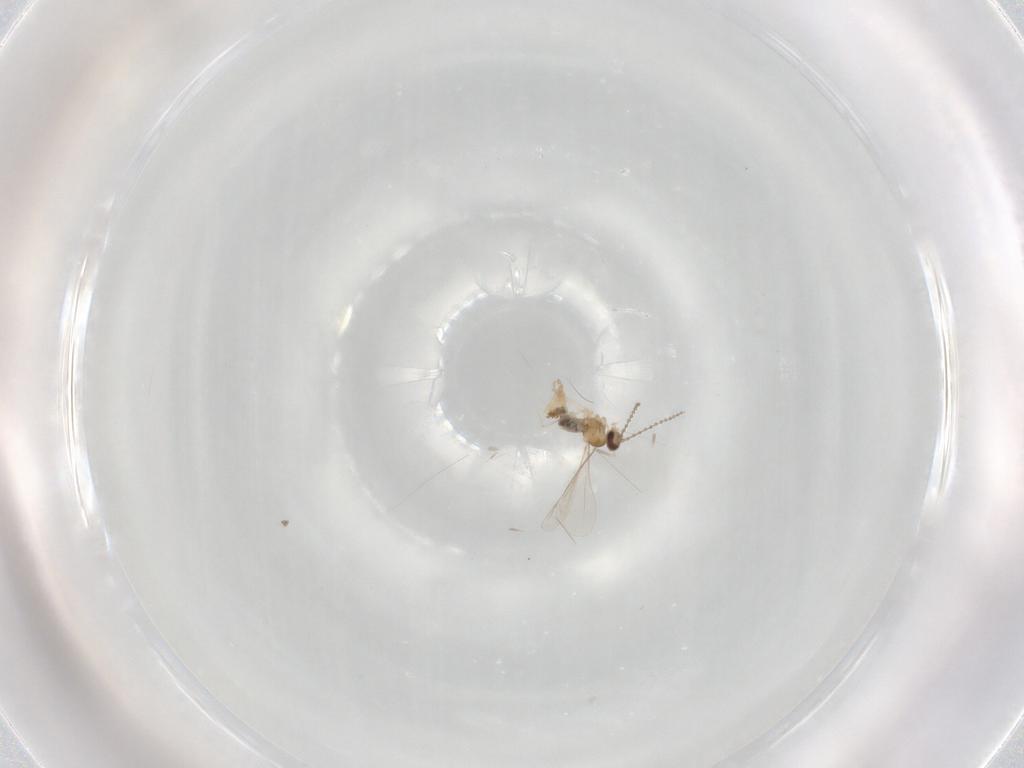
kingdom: Animalia
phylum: Arthropoda
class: Insecta
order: Diptera
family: Cecidomyiidae
